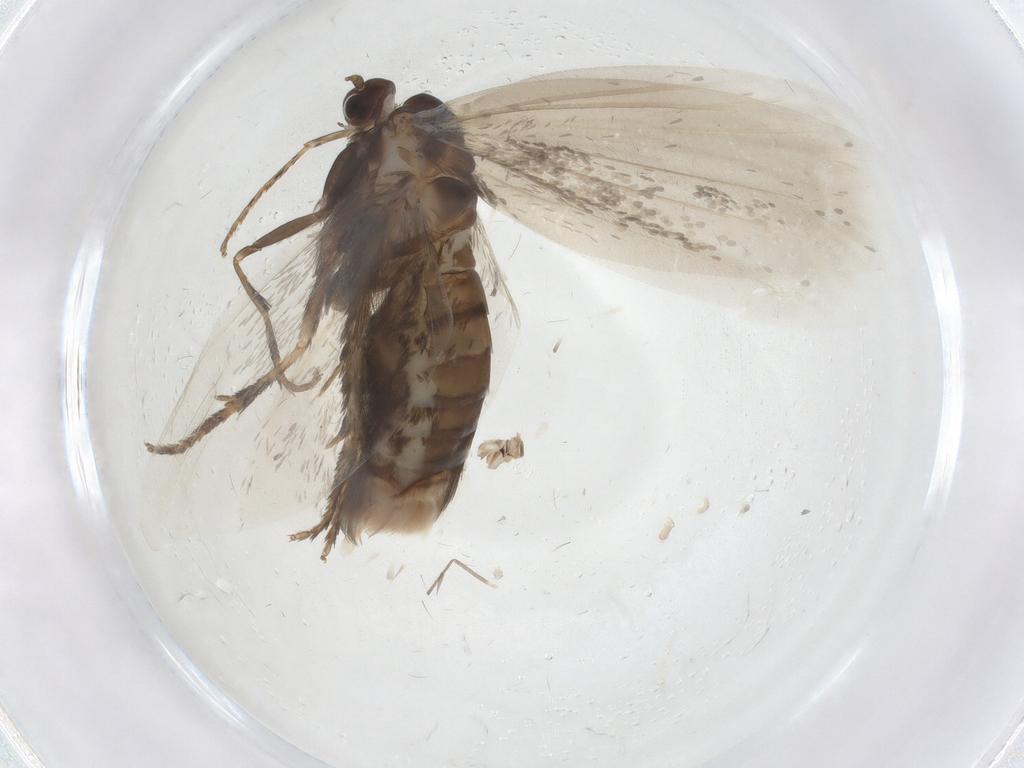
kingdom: Animalia
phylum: Arthropoda
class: Insecta
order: Lepidoptera
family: Psychidae
